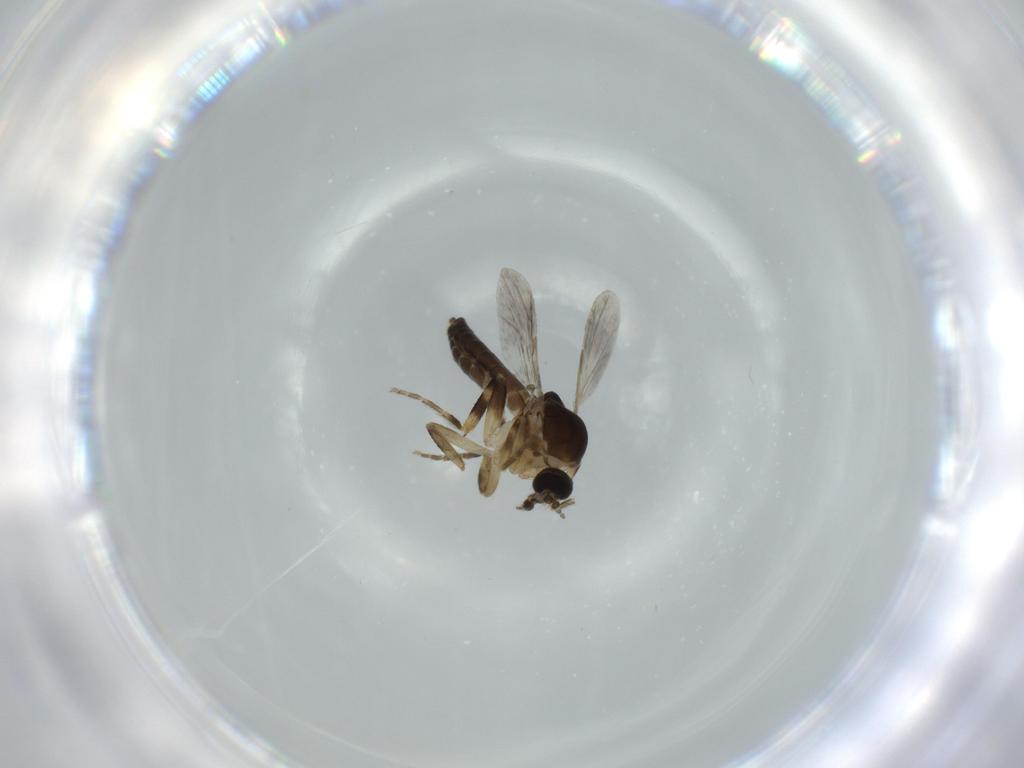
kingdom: Animalia
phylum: Arthropoda
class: Insecta
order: Diptera
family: Ceratopogonidae
